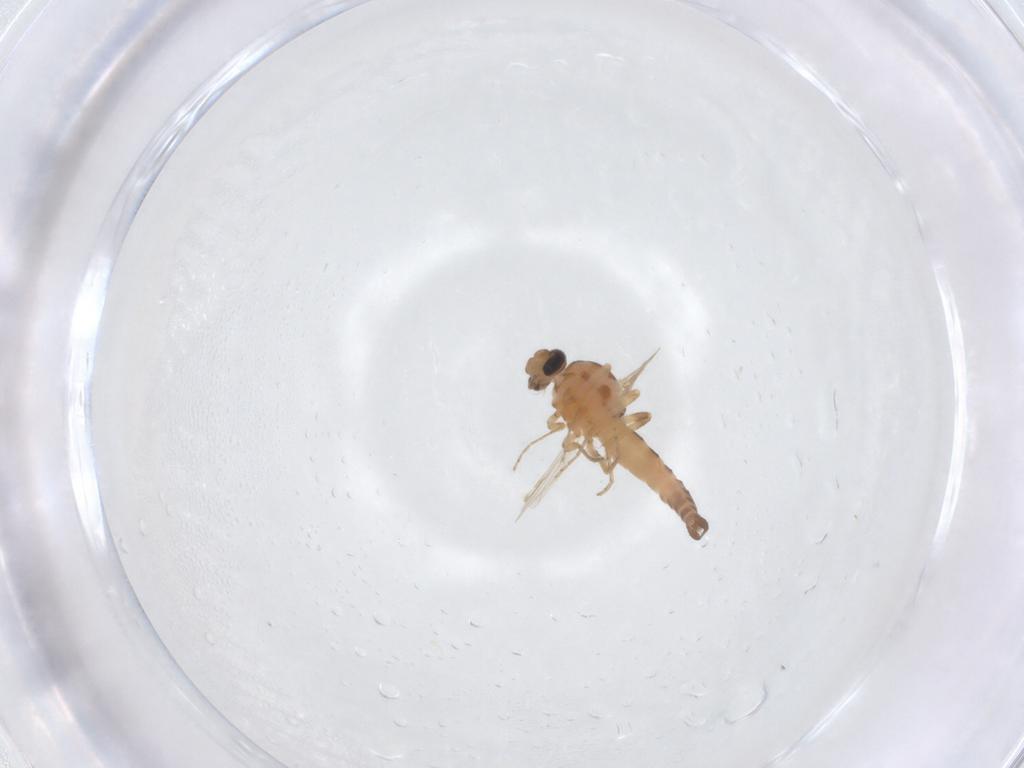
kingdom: Animalia
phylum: Arthropoda
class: Insecta
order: Diptera
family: Ceratopogonidae
